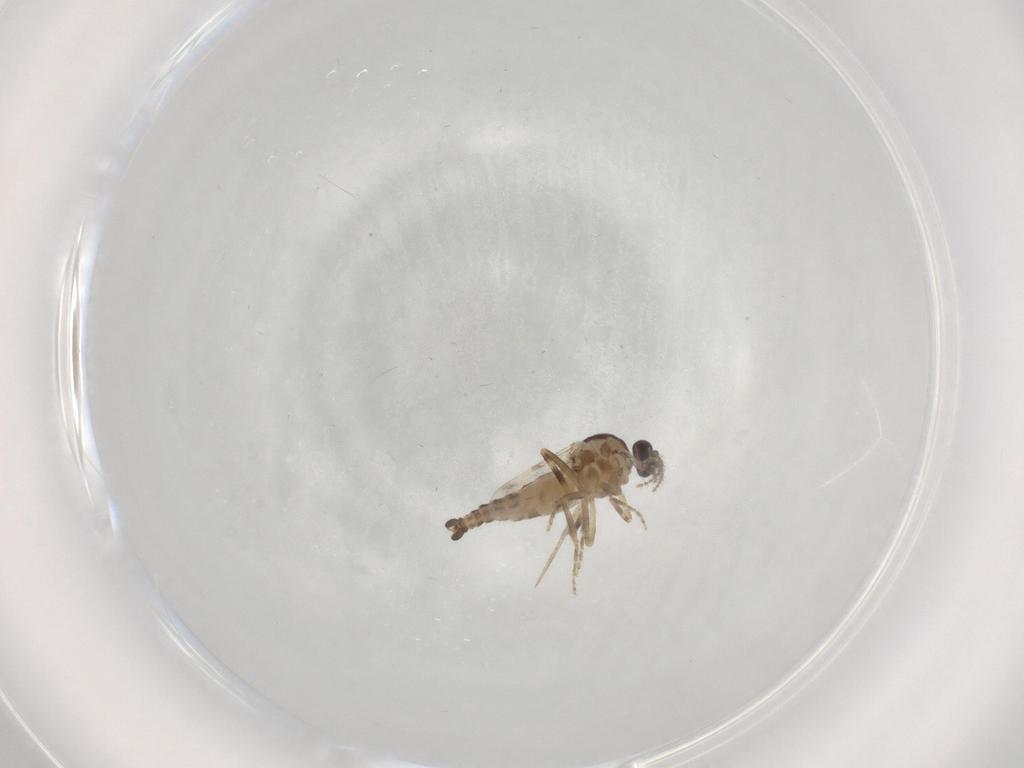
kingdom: Animalia
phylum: Arthropoda
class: Insecta
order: Diptera
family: Ceratopogonidae
